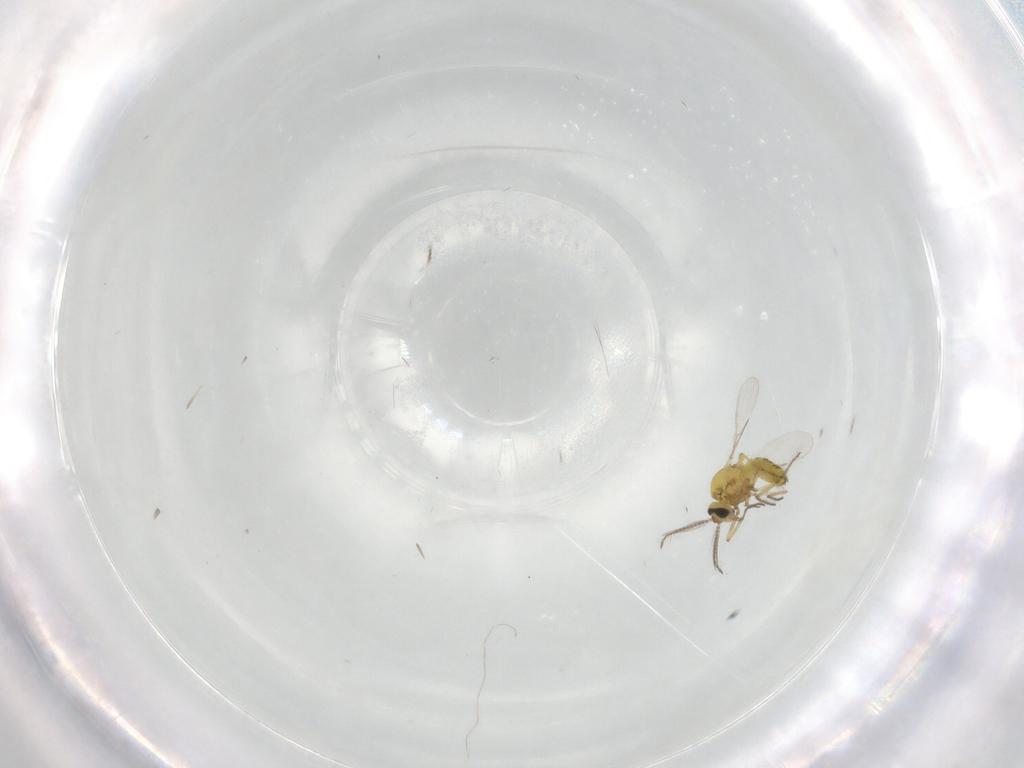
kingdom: Animalia
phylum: Arthropoda
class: Insecta
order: Diptera
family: Ceratopogonidae
